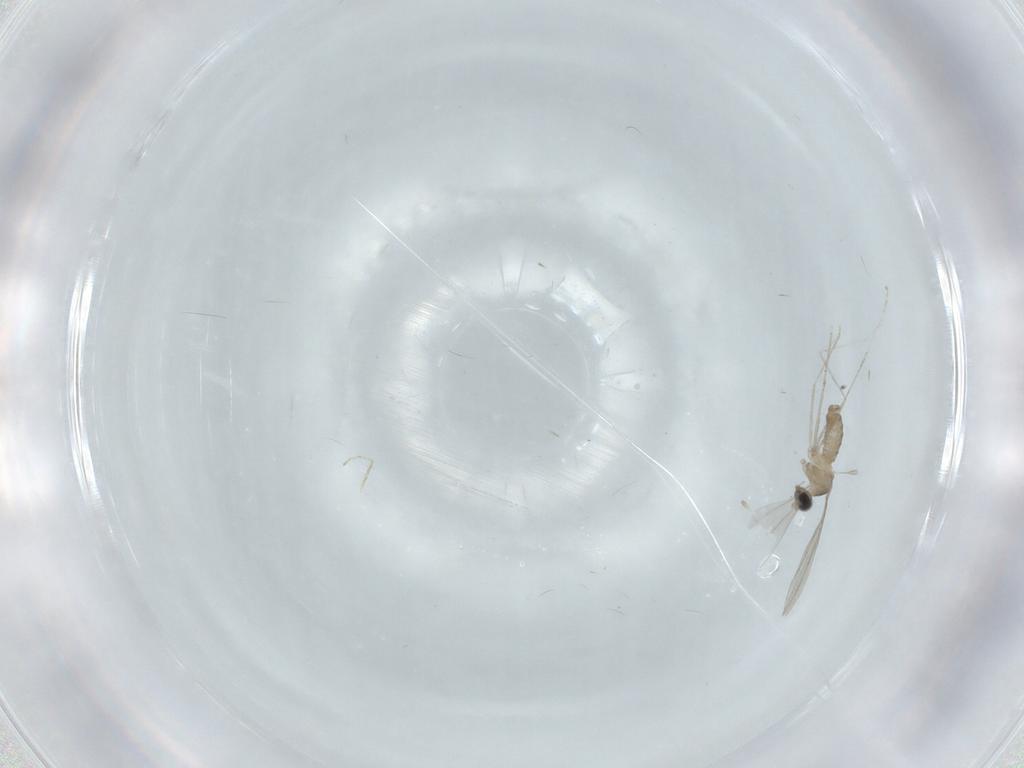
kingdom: Animalia
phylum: Arthropoda
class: Insecta
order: Diptera
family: Cecidomyiidae
